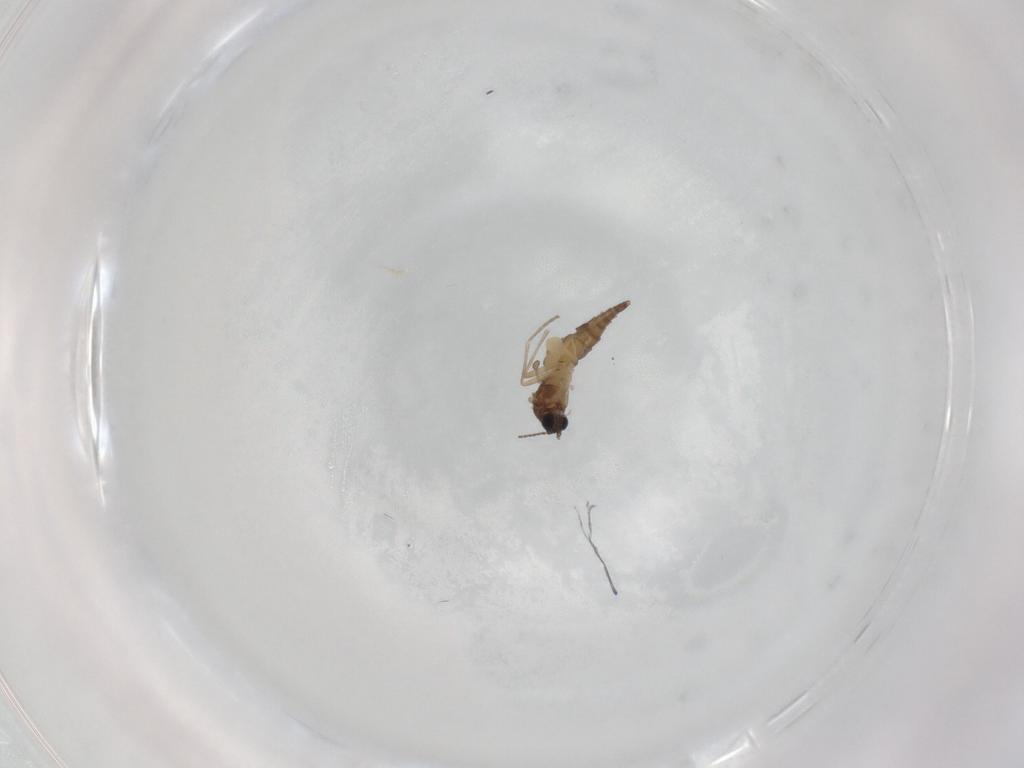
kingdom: Animalia
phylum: Arthropoda
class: Insecta
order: Diptera
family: Sciaridae
